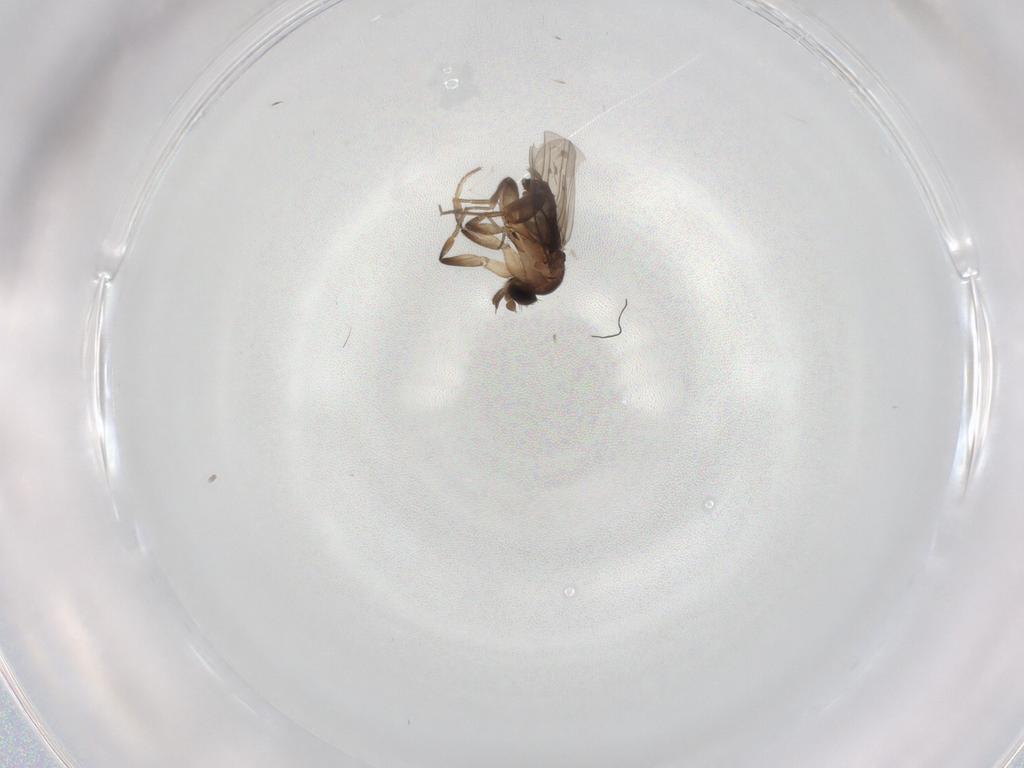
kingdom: Animalia
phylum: Arthropoda
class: Insecta
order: Diptera
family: Phoridae
